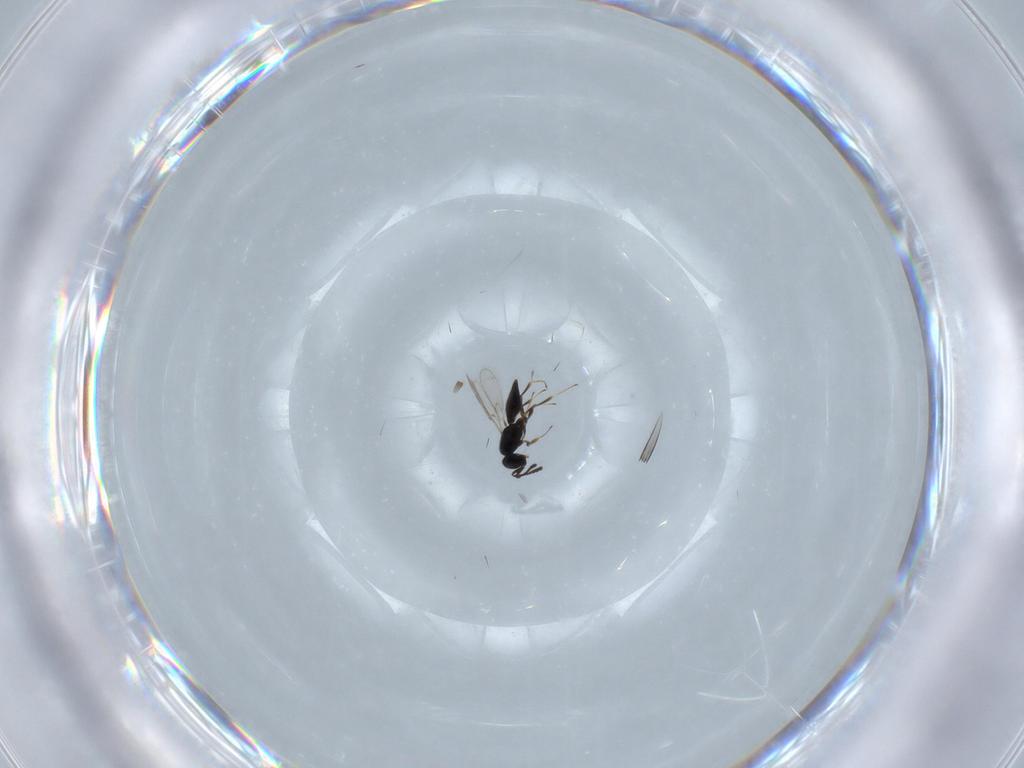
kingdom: Animalia
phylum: Arthropoda
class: Insecta
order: Hymenoptera
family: Scelionidae
